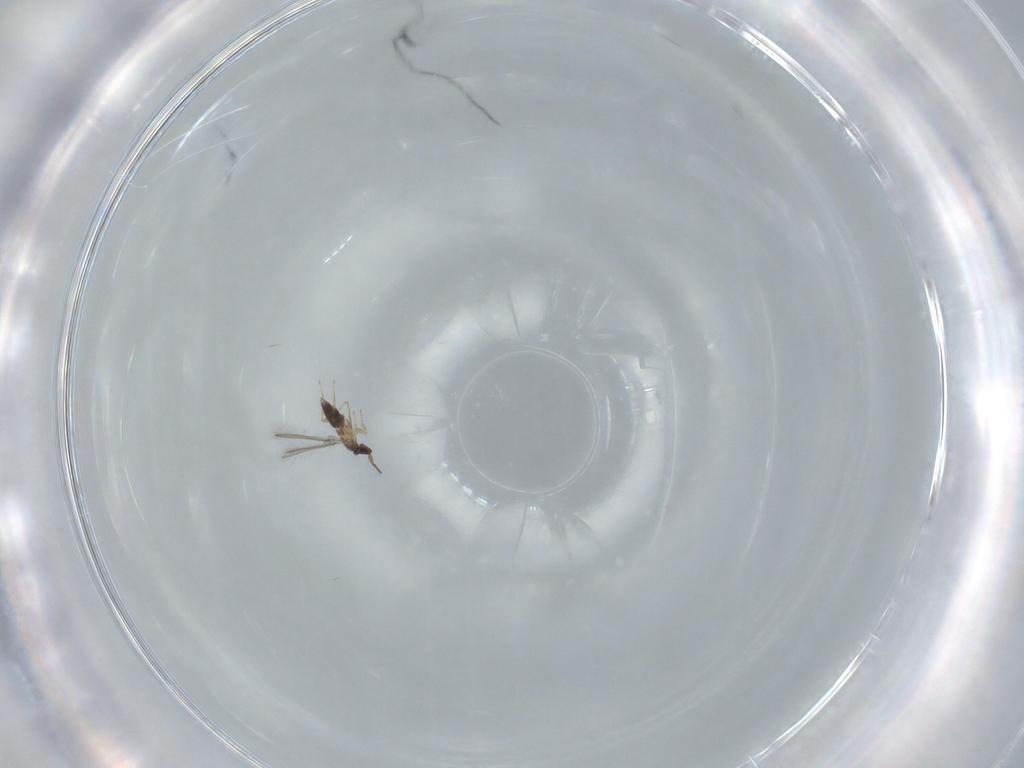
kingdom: Animalia
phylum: Arthropoda
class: Insecta
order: Hymenoptera
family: Mymaridae
